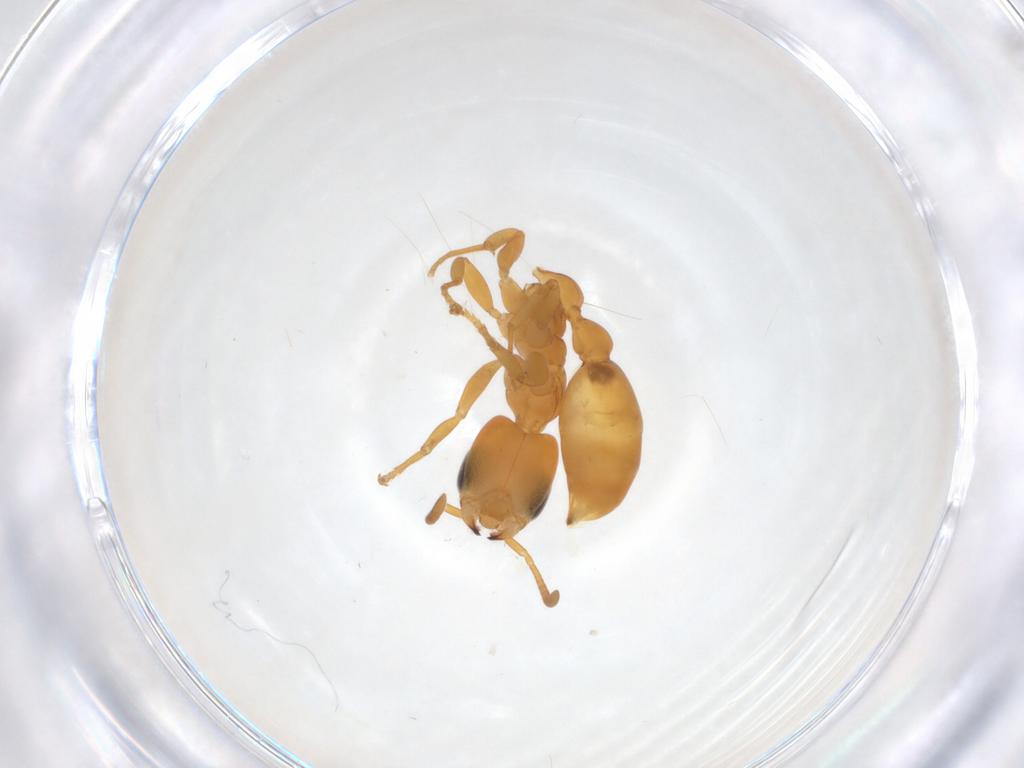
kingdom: Animalia
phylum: Arthropoda
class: Insecta
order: Hymenoptera
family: Formicidae
